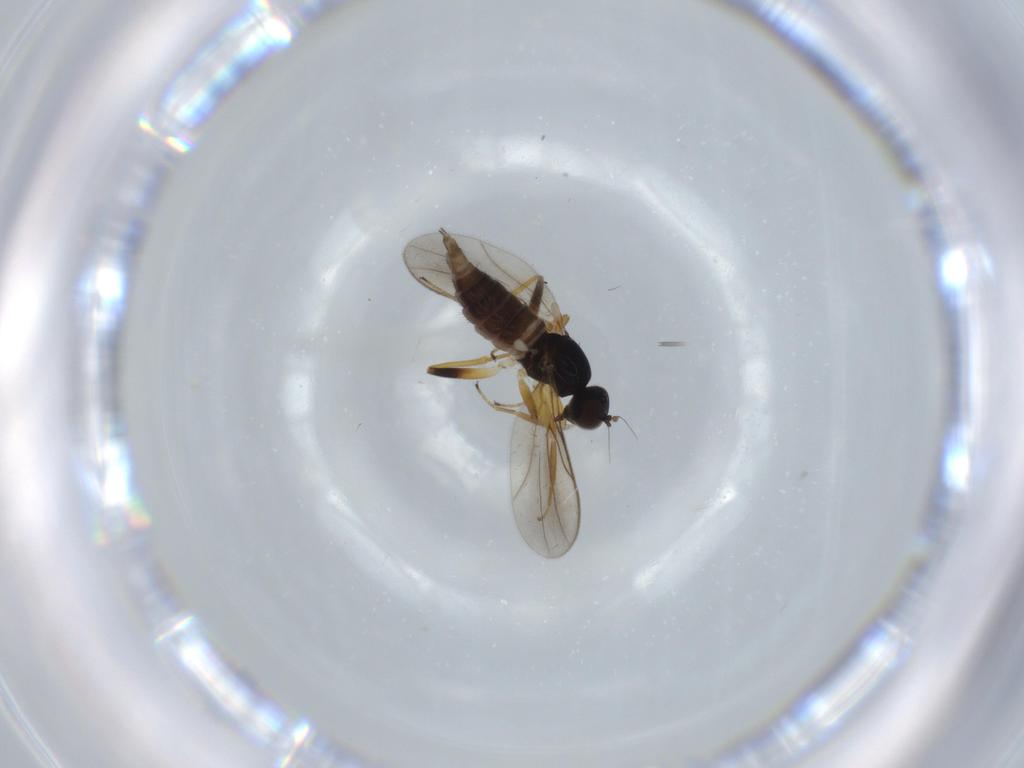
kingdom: Animalia
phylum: Arthropoda
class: Insecta
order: Diptera
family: Hybotidae
